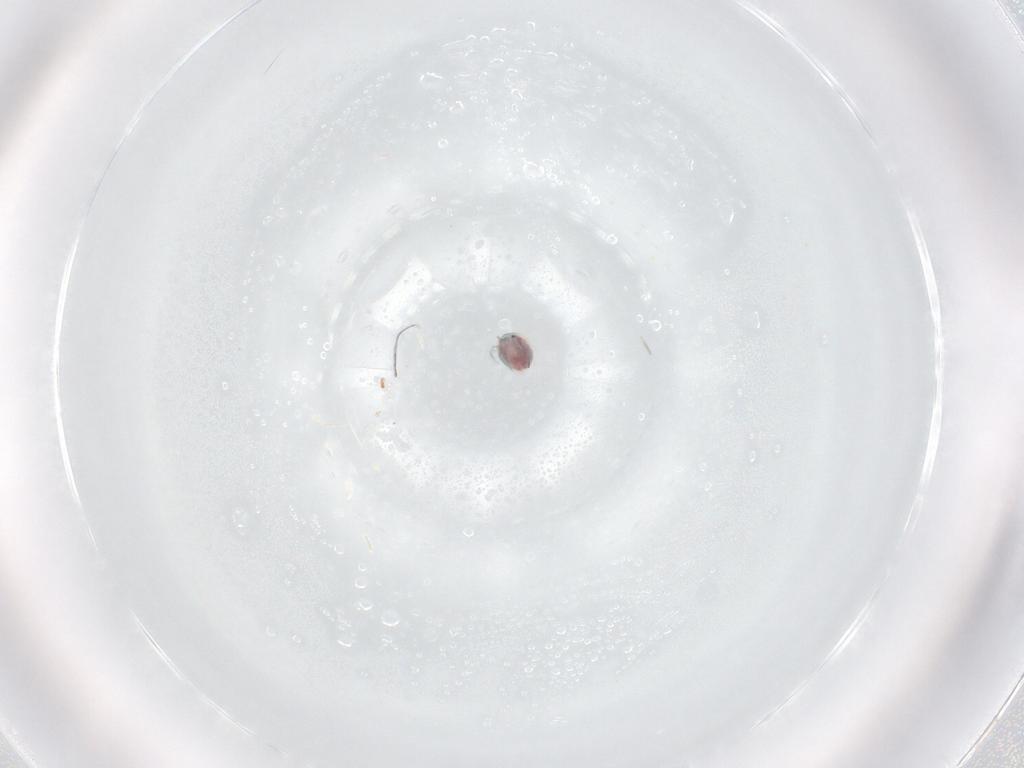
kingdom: Animalia
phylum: Arthropoda
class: Arachnida
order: Trombidiformes
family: Unionicolidae
